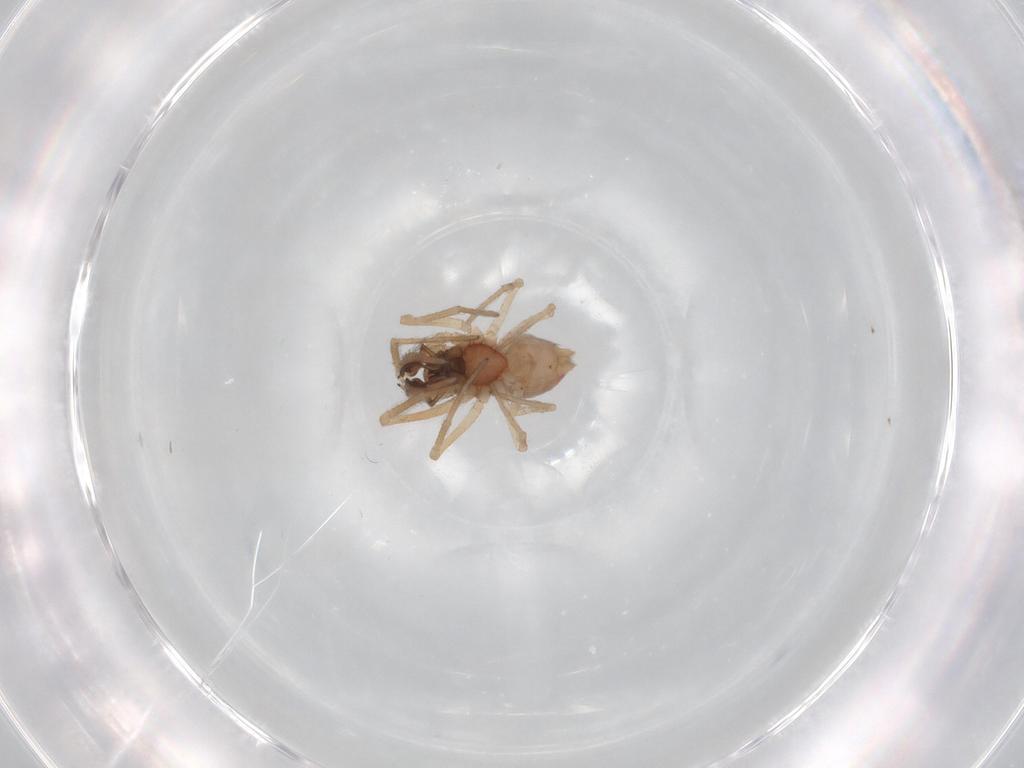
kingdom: Animalia
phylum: Arthropoda
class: Arachnida
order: Araneae
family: Dictynidae
